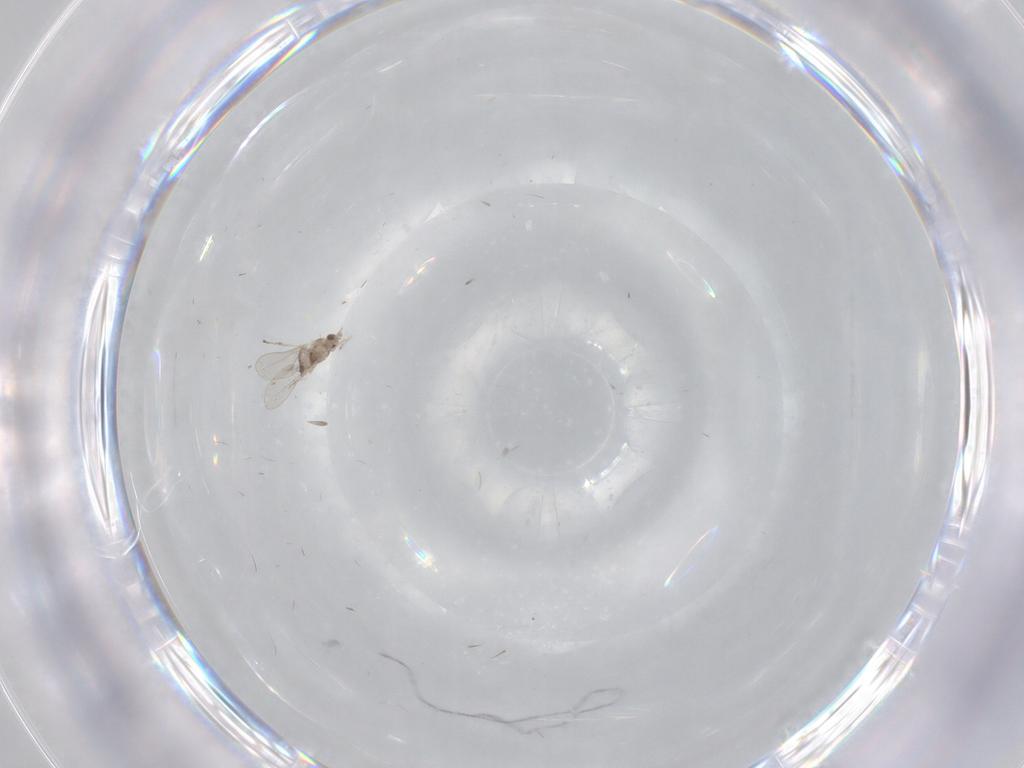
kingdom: Animalia
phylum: Arthropoda
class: Insecta
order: Diptera
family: Cecidomyiidae
